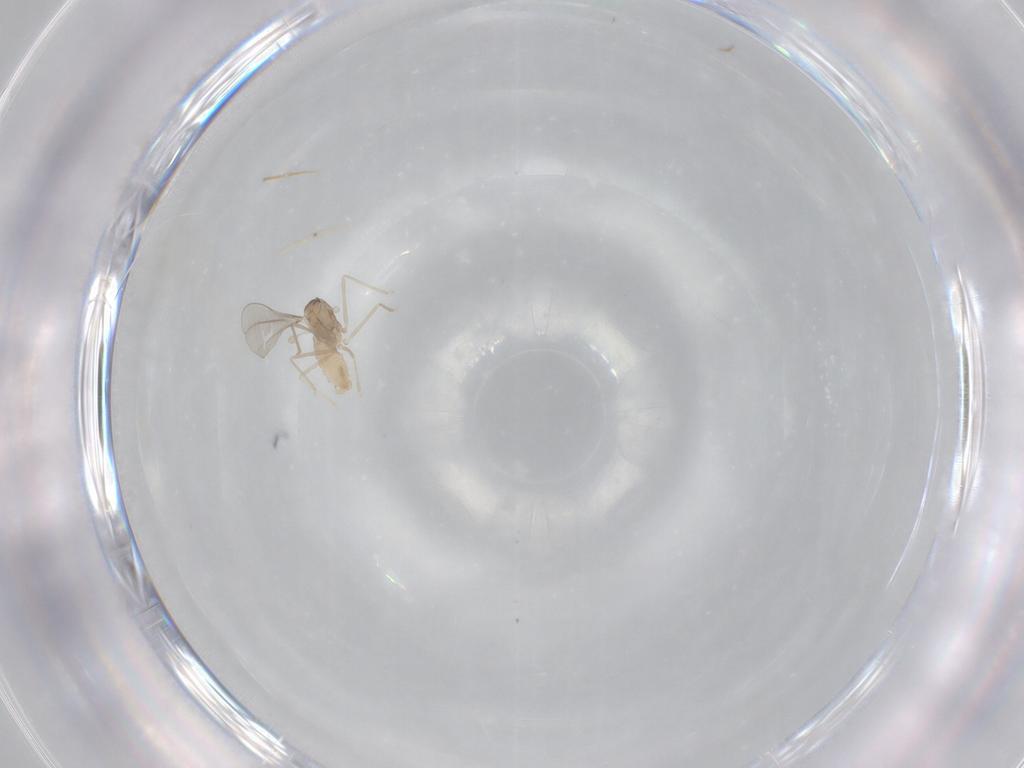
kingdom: Animalia
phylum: Arthropoda
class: Insecta
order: Diptera
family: Cecidomyiidae
